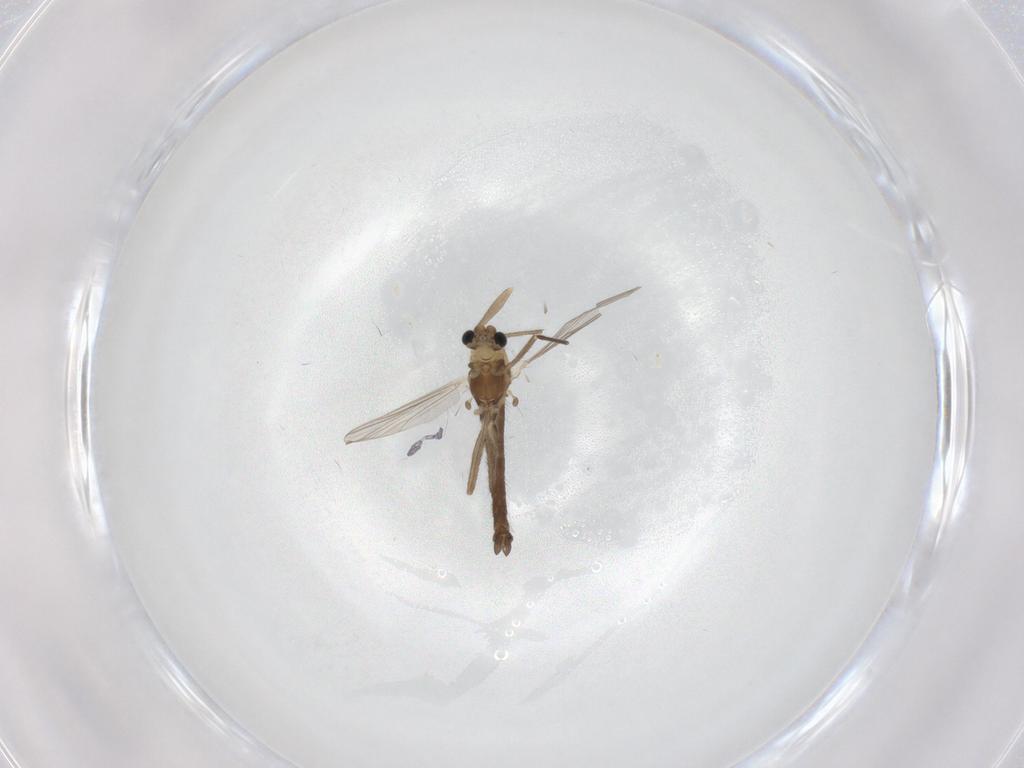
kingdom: Animalia
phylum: Arthropoda
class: Insecta
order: Diptera
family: Chironomidae
